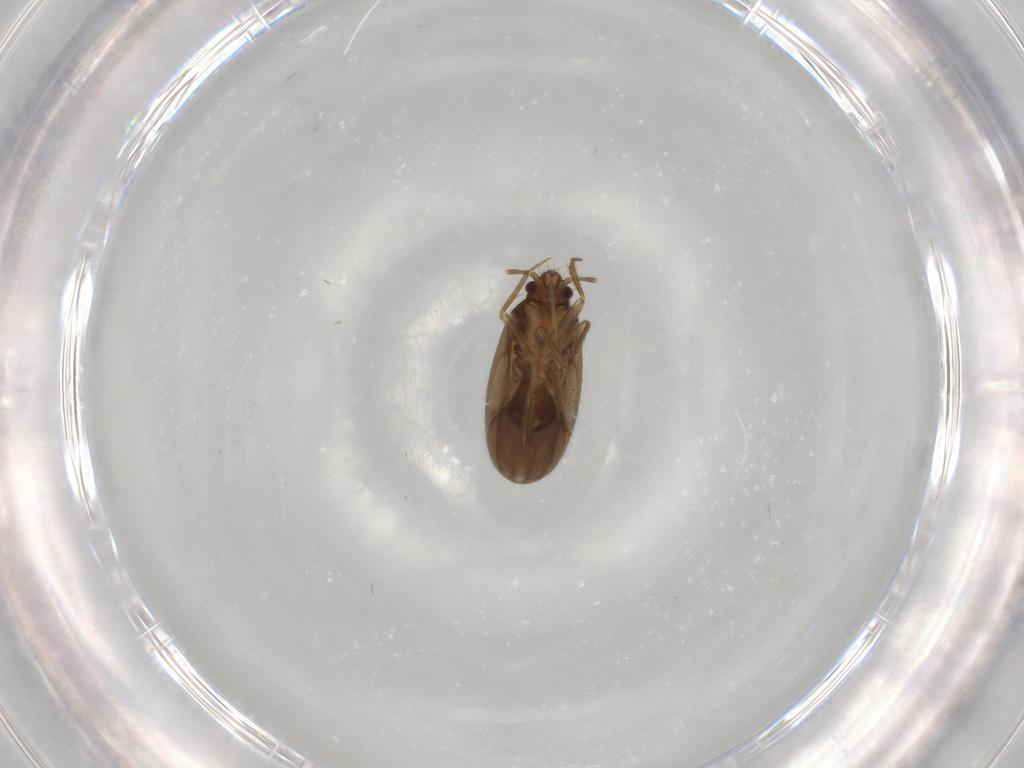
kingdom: Animalia
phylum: Arthropoda
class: Insecta
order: Hemiptera
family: Ceratocombidae
